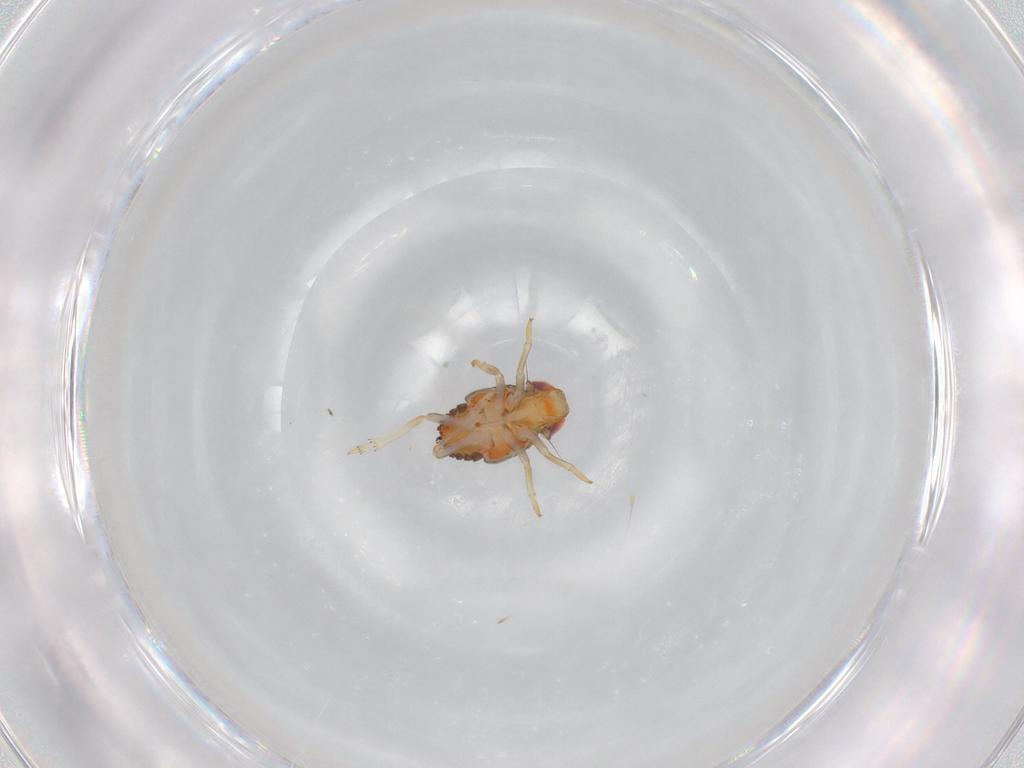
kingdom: Animalia
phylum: Arthropoda
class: Insecta
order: Hemiptera
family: Issidae
